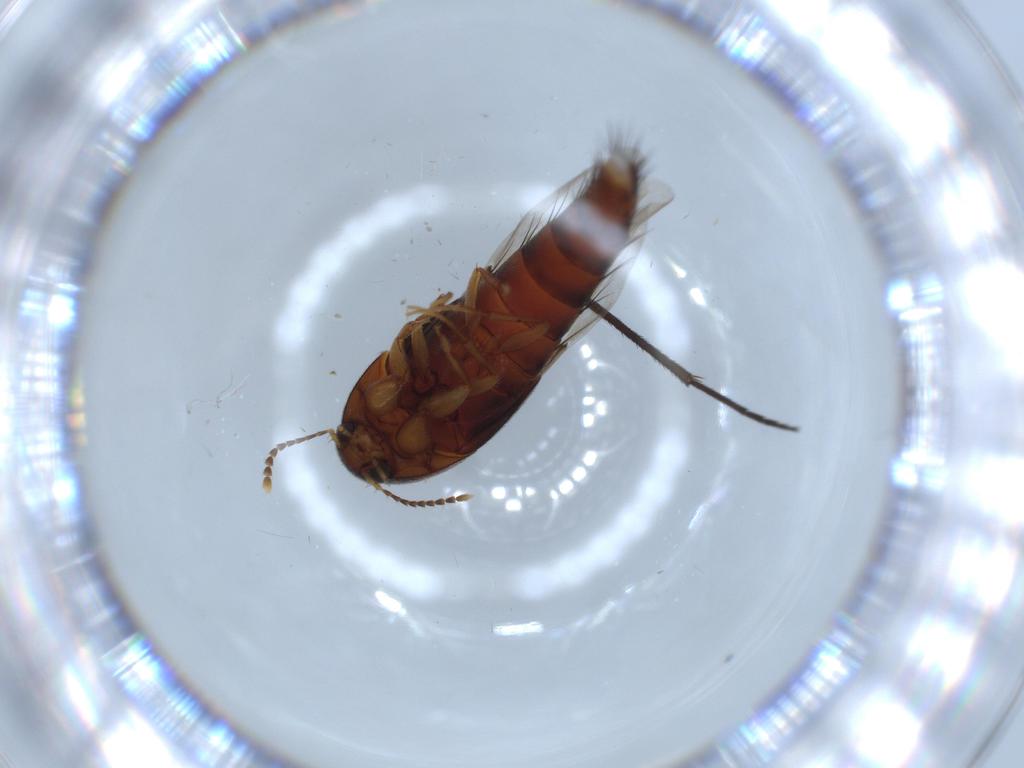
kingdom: Animalia
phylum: Arthropoda
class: Insecta
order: Coleoptera
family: Staphylinidae
